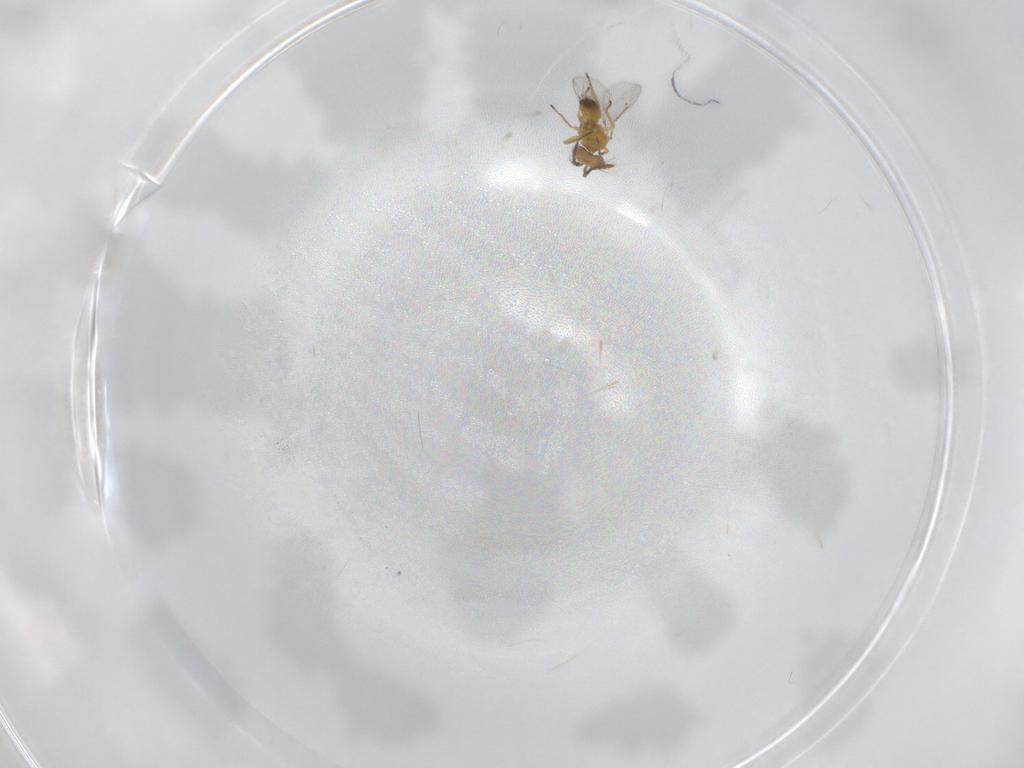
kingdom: Animalia
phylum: Arthropoda
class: Insecta
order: Hymenoptera
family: Eulophidae
